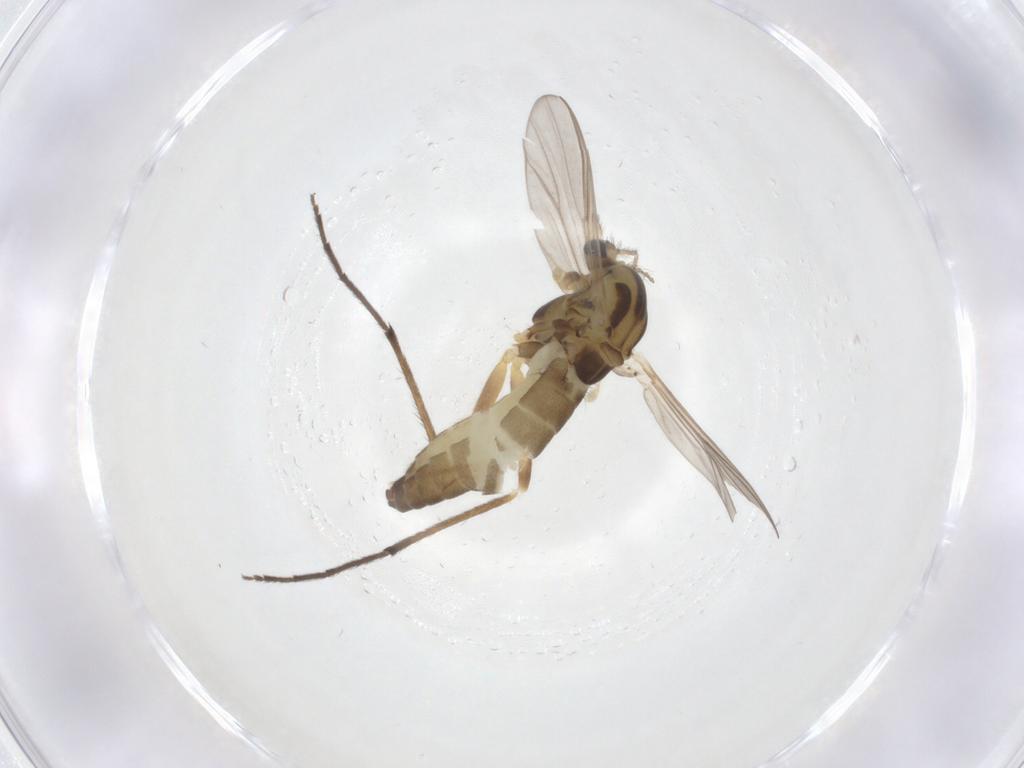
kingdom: Animalia
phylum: Arthropoda
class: Insecta
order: Diptera
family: Chironomidae
